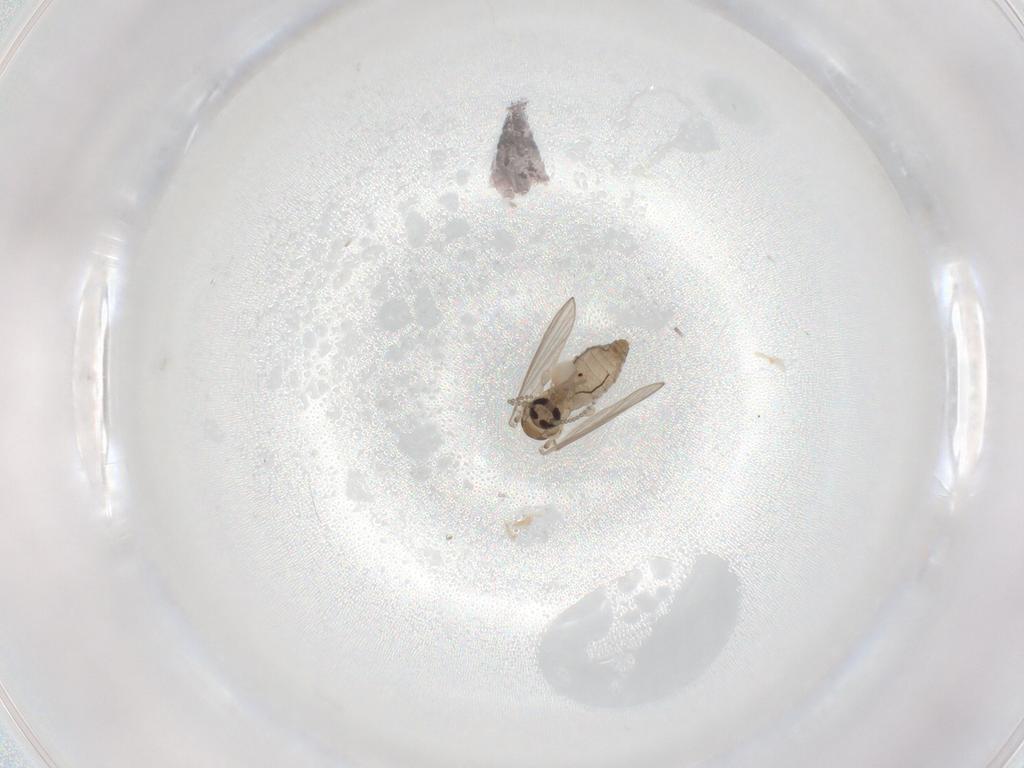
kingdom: Animalia
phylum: Arthropoda
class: Insecta
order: Diptera
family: Psychodidae
